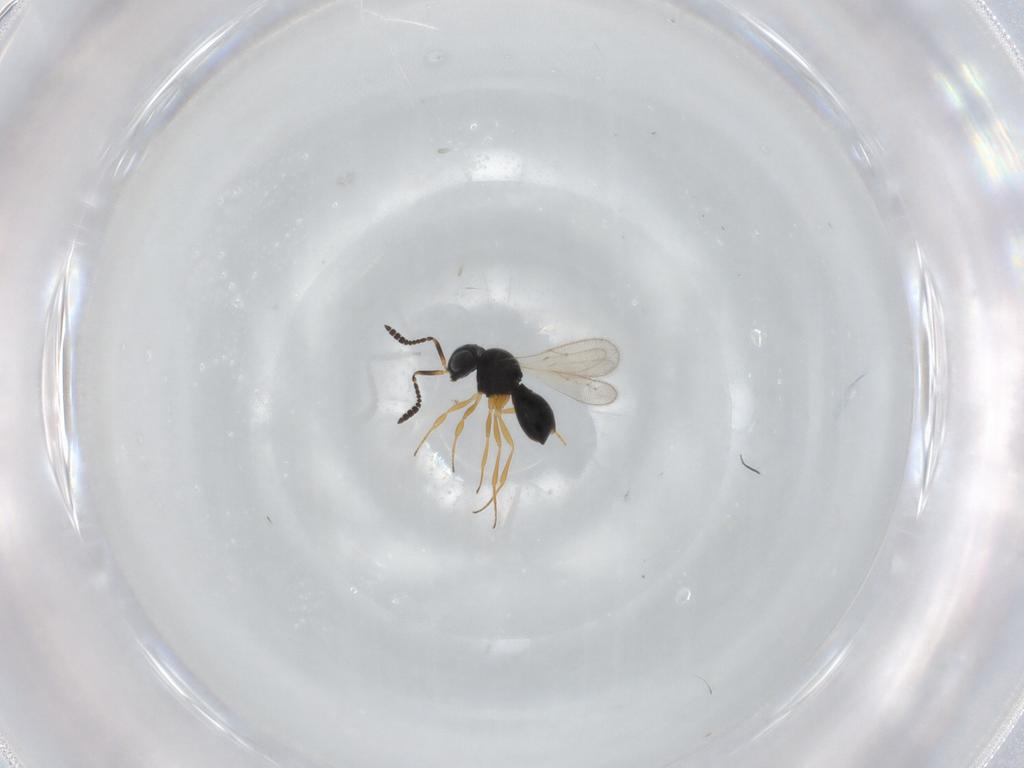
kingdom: Animalia
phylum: Arthropoda
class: Insecta
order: Hymenoptera
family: Scelionidae
